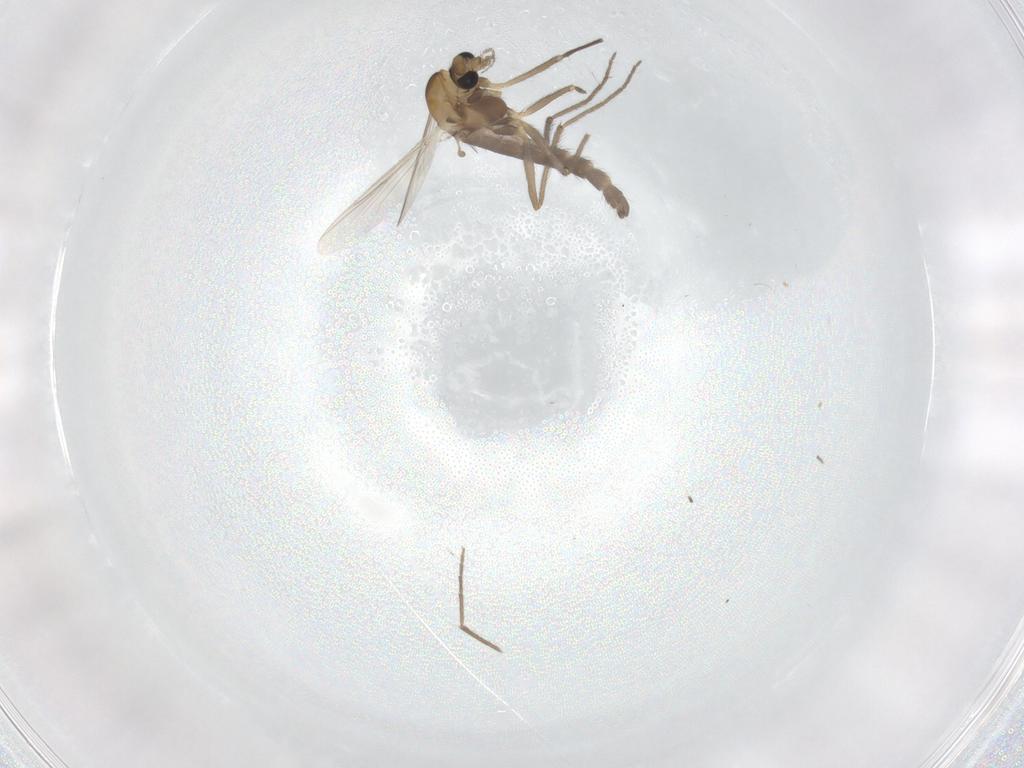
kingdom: Animalia
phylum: Arthropoda
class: Insecta
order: Diptera
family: Chironomidae
